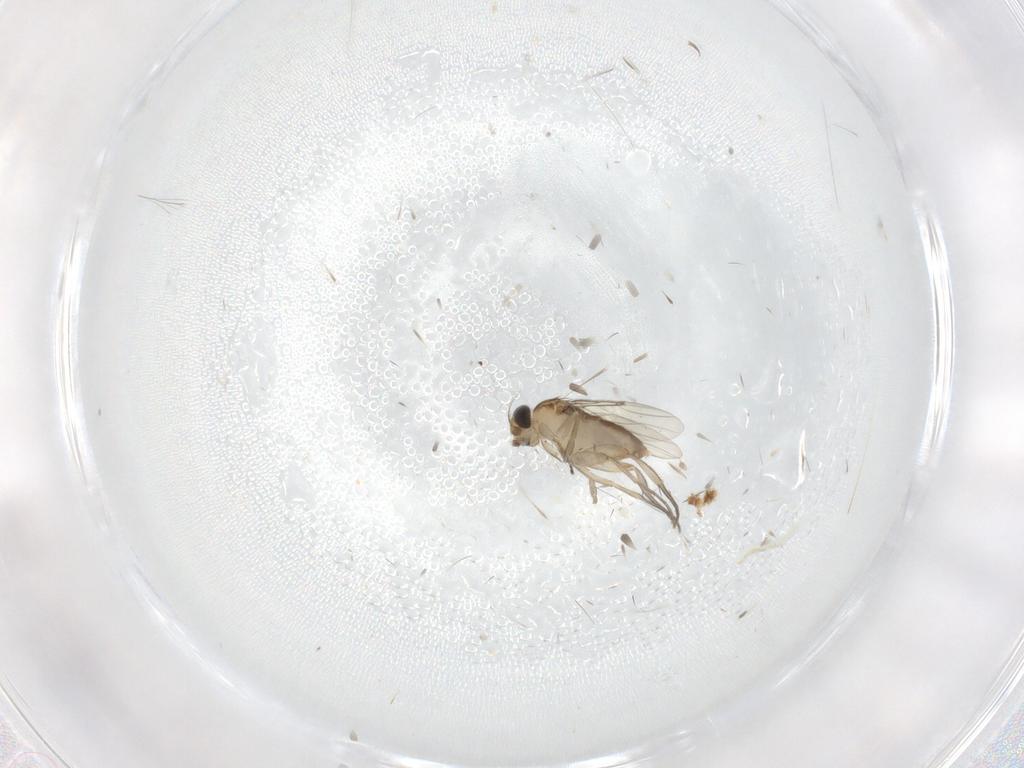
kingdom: Animalia
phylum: Arthropoda
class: Insecta
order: Diptera
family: Phoridae
